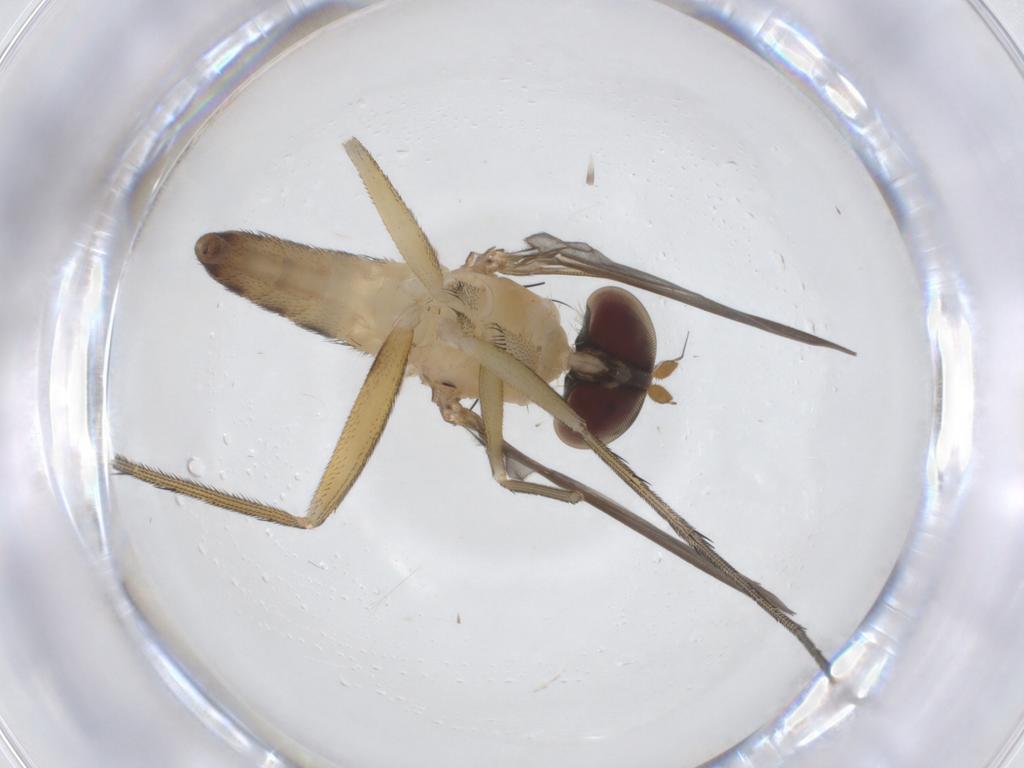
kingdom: Animalia
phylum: Arthropoda
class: Insecta
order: Diptera
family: Dolichopodidae
